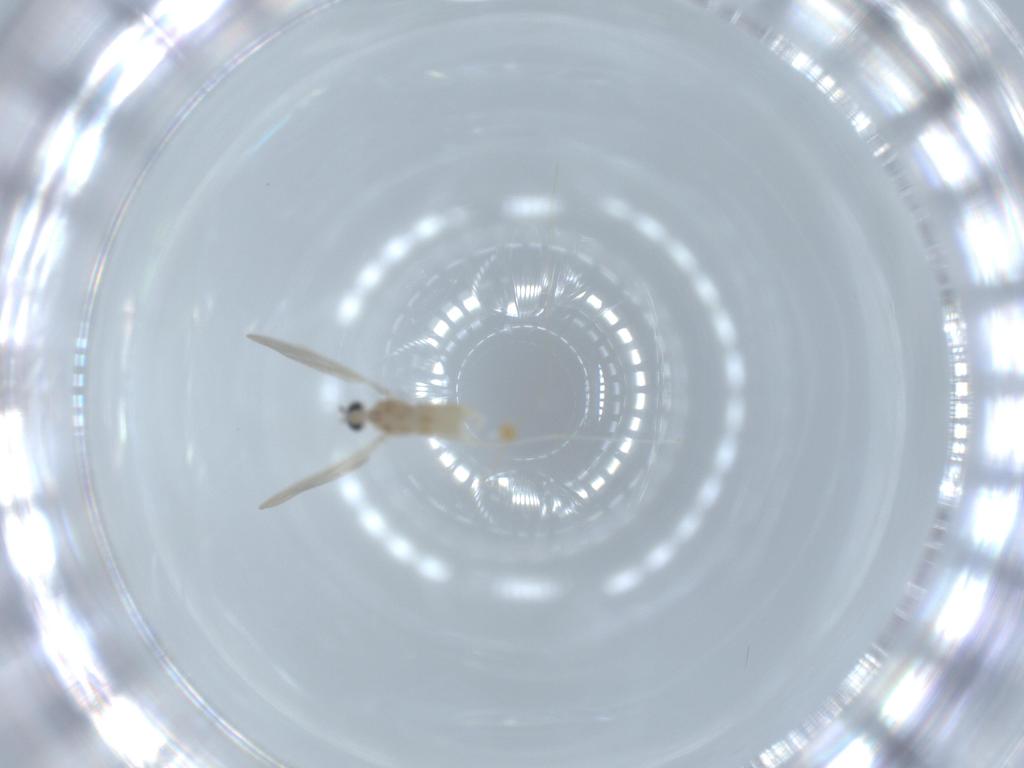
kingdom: Animalia
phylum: Arthropoda
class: Insecta
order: Diptera
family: Cecidomyiidae
